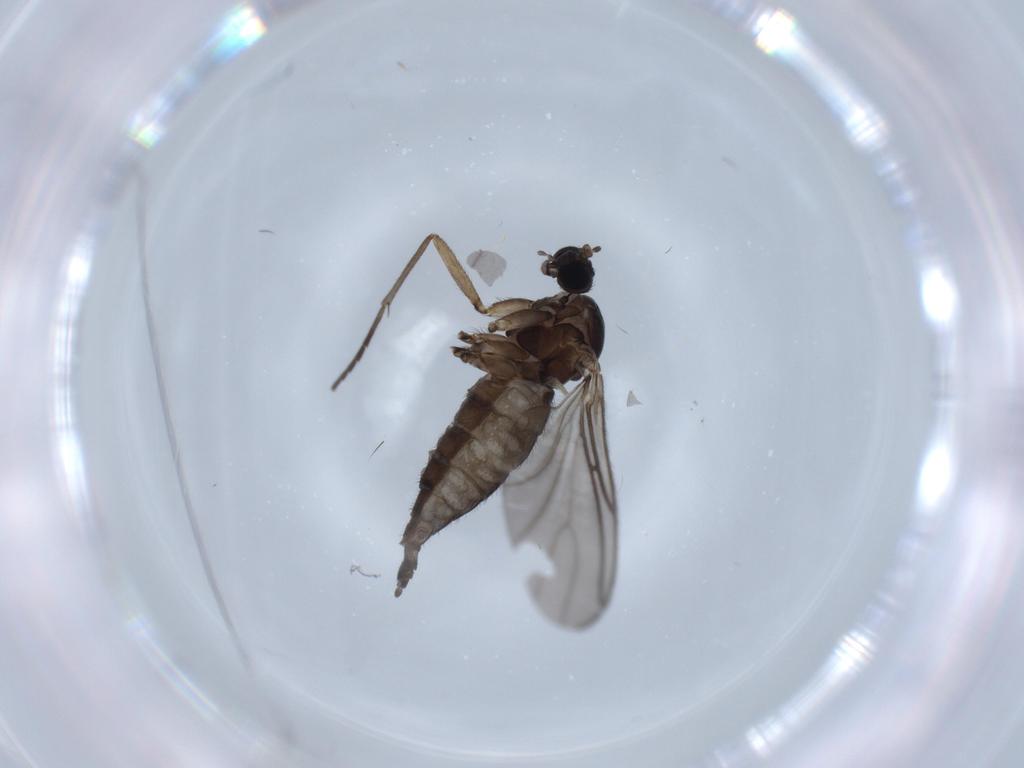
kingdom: Animalia
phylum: Arthropoda
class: Insecta
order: Diptera
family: Sciaridae
